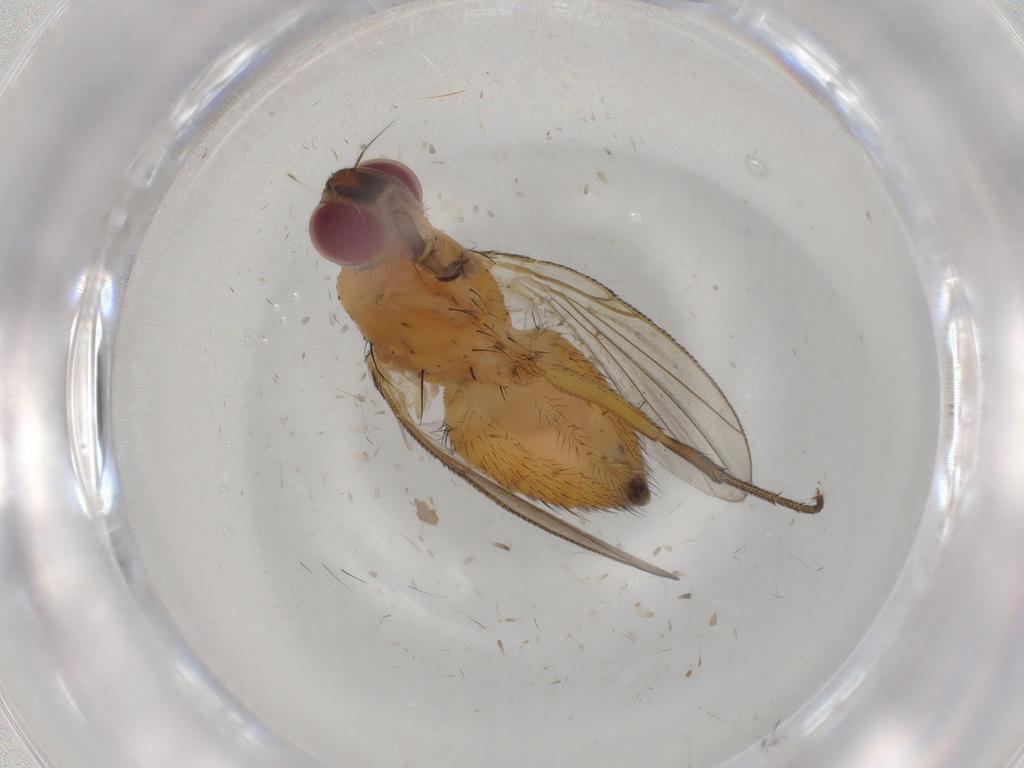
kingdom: Animalia
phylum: Arthropoda
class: Insecta
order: Diptera
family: Muscidae
